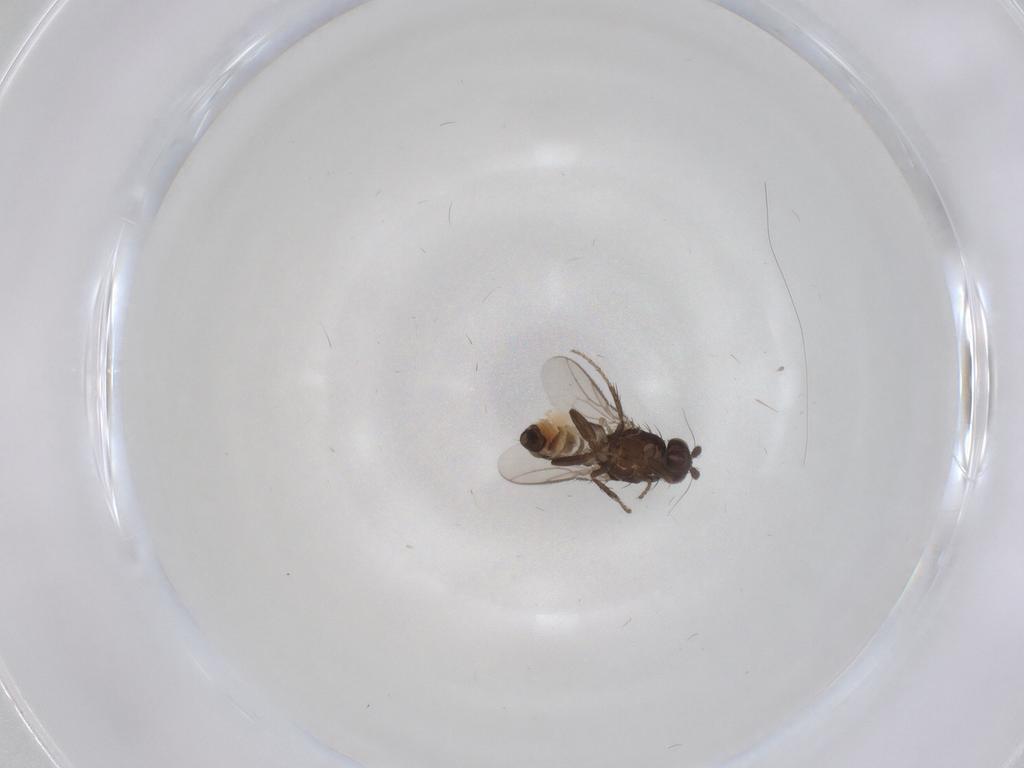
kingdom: Animalia
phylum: Arthropoda
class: Insecta
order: Diptera
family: Sphaeroceridae
